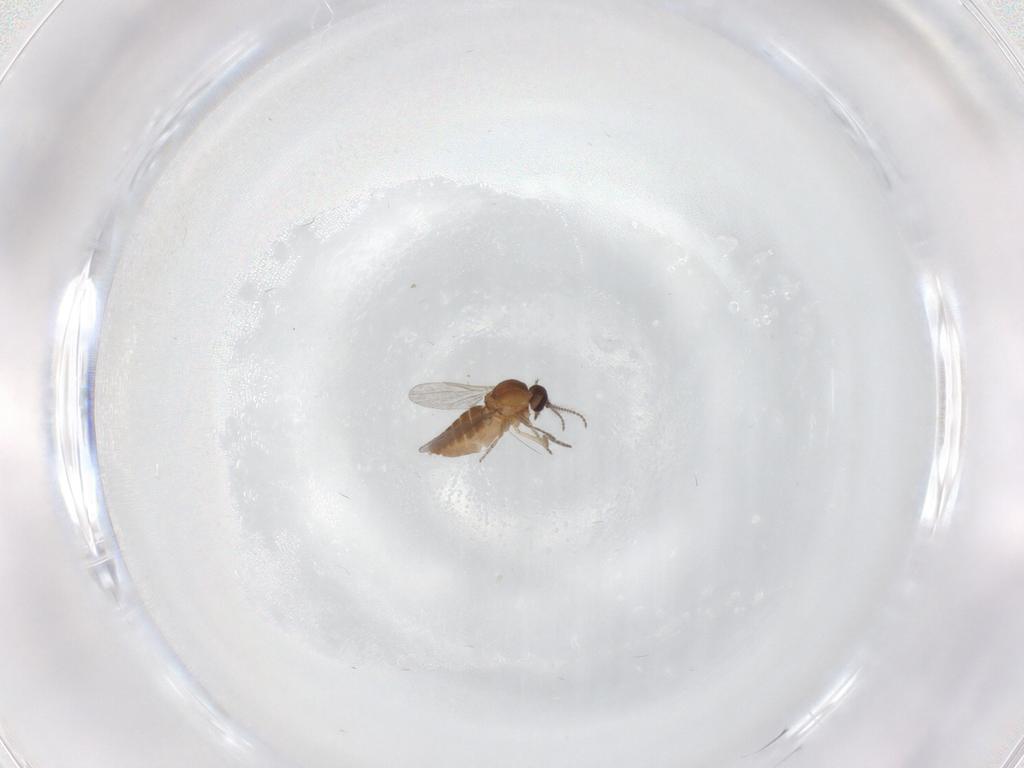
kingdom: Animalia
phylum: Arthropoda
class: Insecta
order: Diptera
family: Ceratopogonidae
